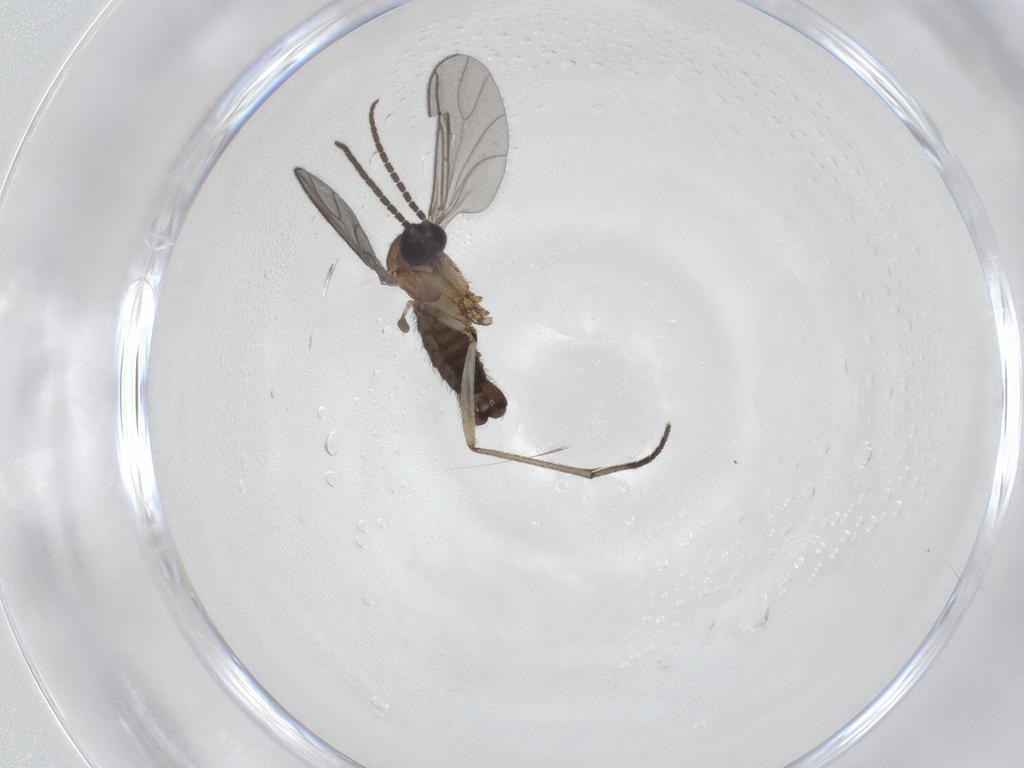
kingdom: Animalia
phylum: Arthropoda
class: Insecta
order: Diptera
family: Sciaridae
